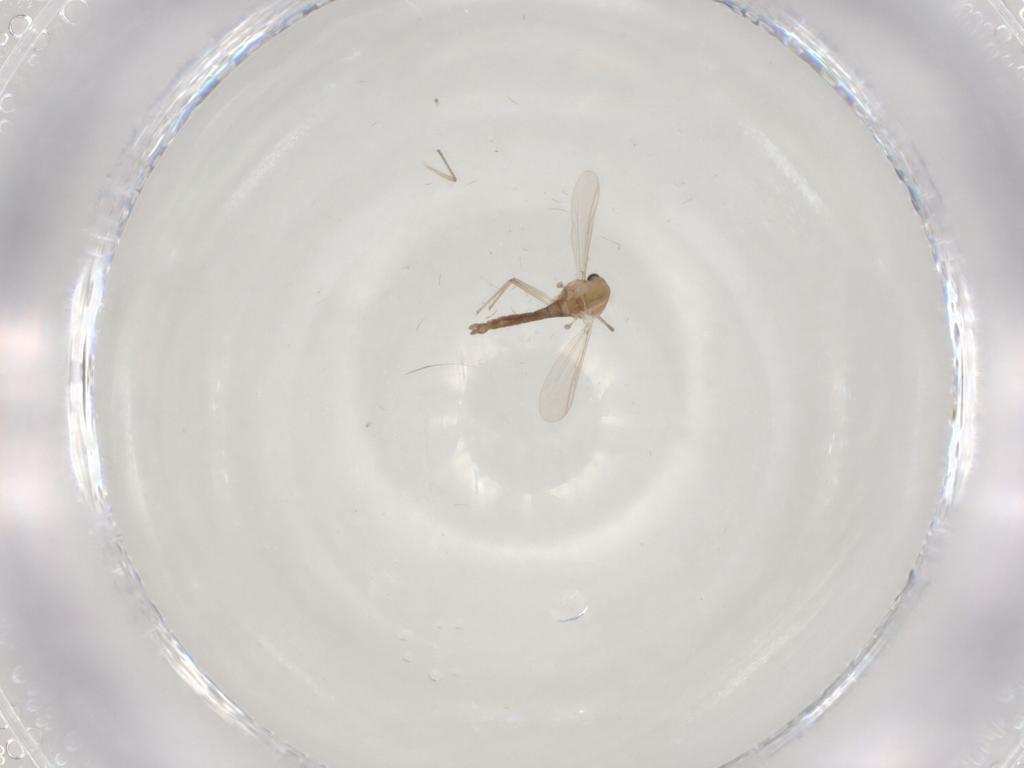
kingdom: Animalia
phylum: Arthropoda
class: Insecta
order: Diptera
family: Chironomidae
